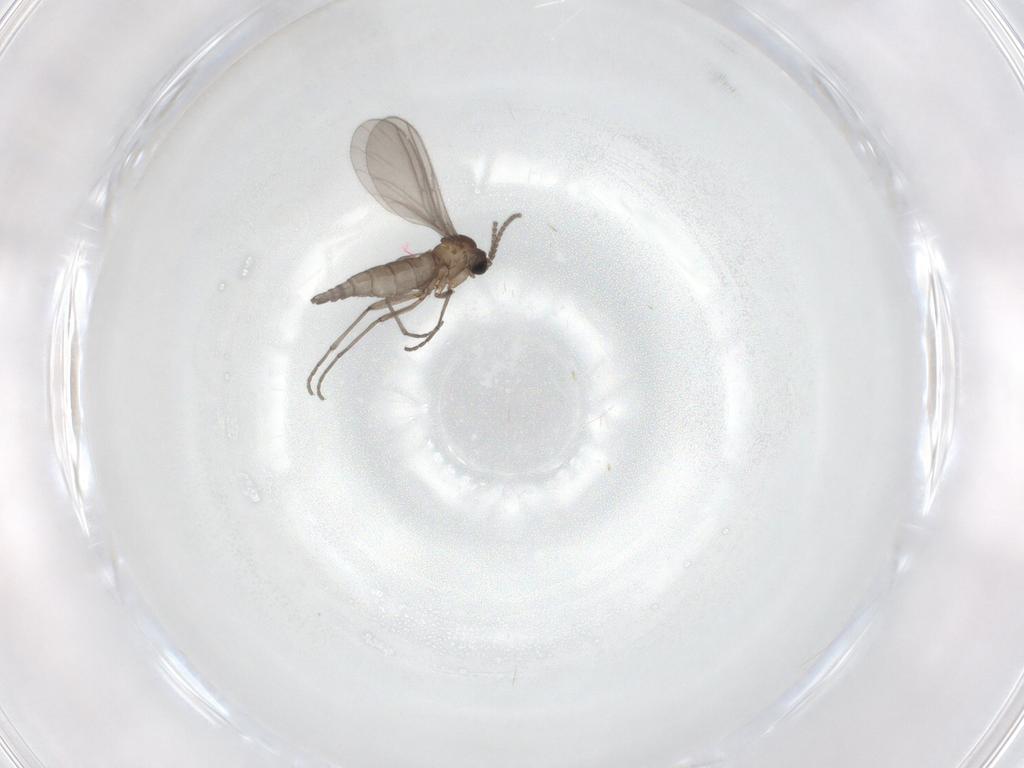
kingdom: Animalia
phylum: Arthropoda
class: Insecta
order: Diptera
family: Sciaridae
